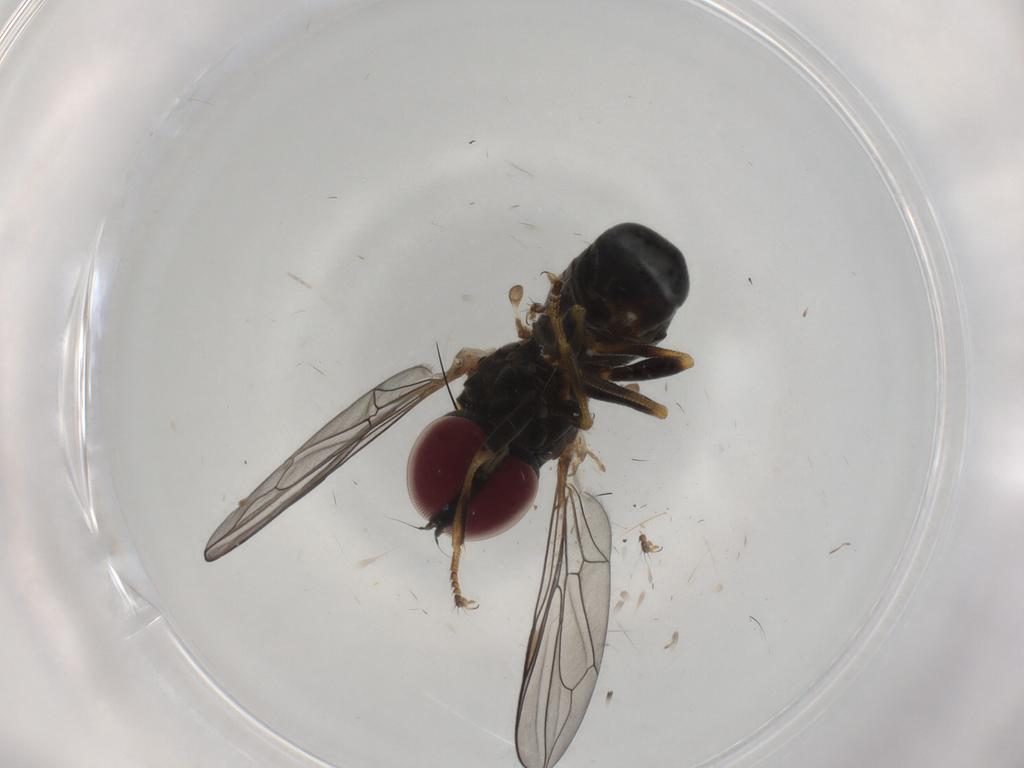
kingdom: Animalia
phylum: Arthropoda
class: Insecta
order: Diptera
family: Pipunculidae
